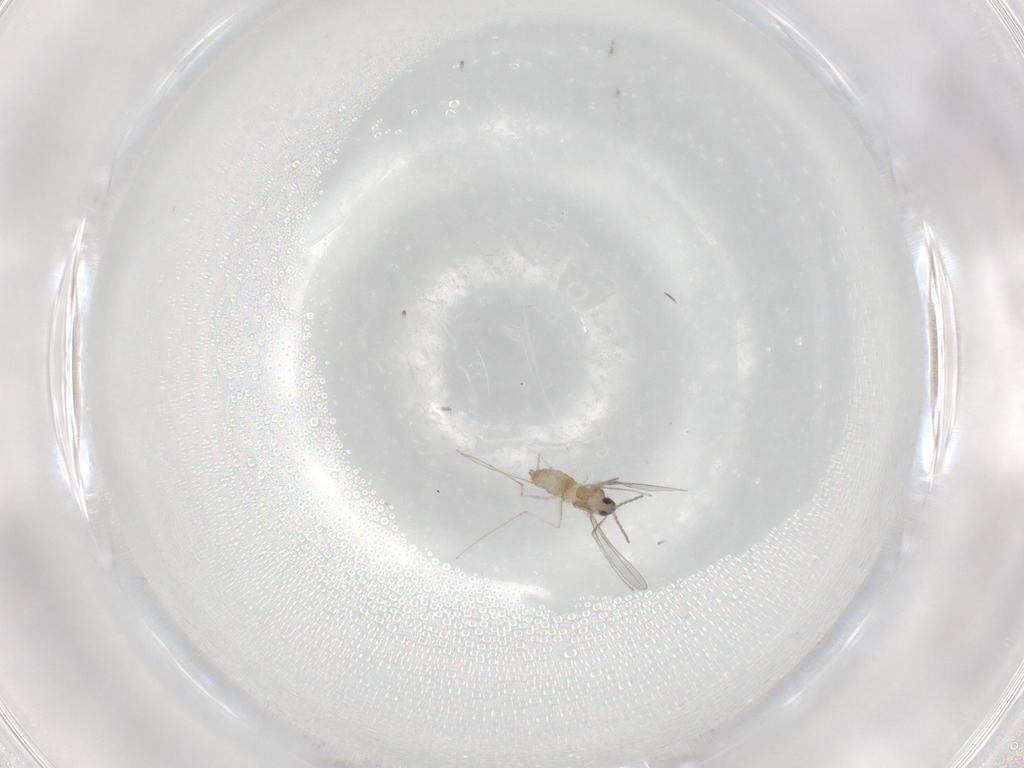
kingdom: Animalia
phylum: Arthropoda
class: Insecta
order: Diptera
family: Cecidomyiidae
